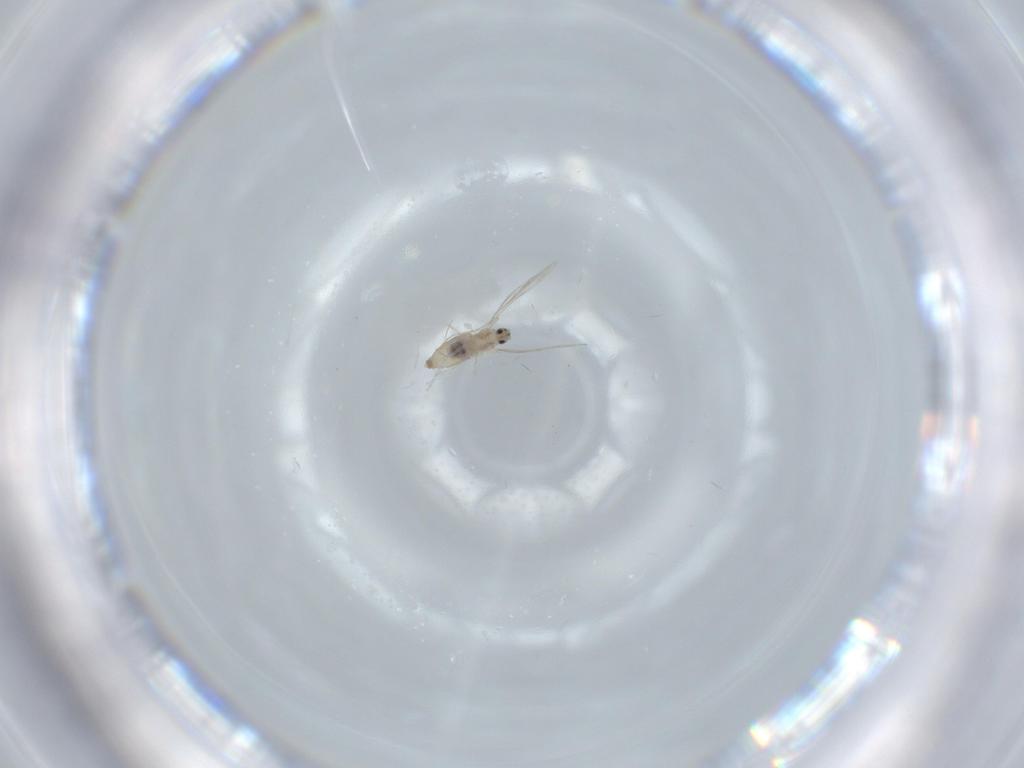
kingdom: Animalia
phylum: Arthropoda
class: Insecta
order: Diptera
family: Cecidomyiidae
